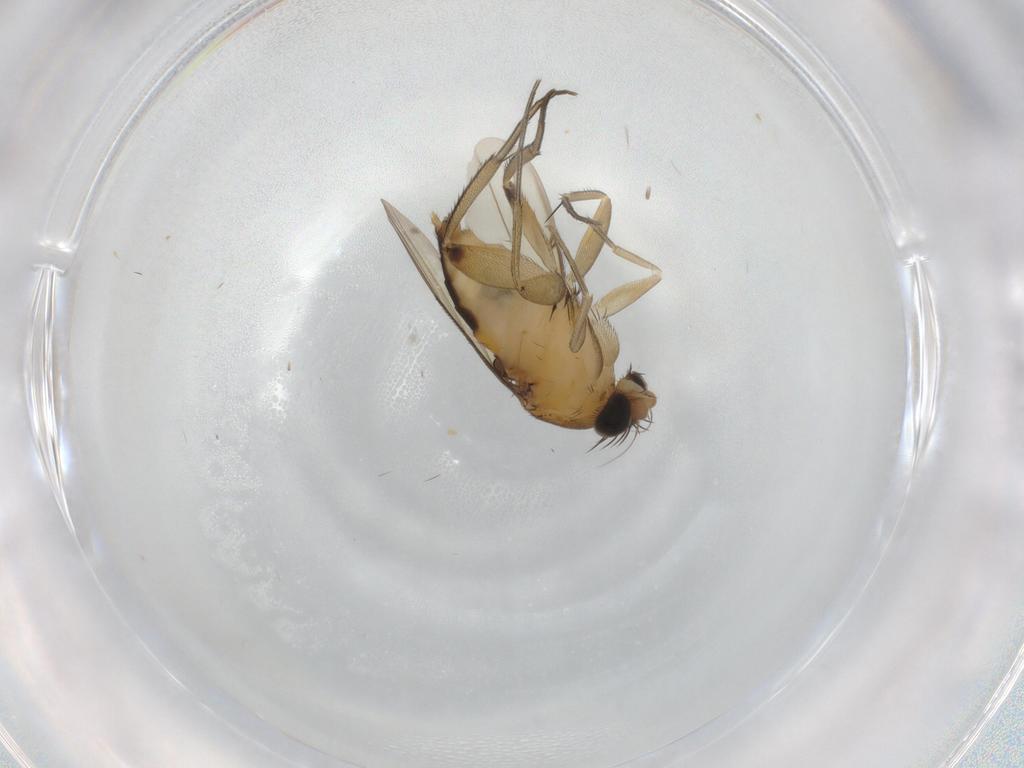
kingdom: Animalia
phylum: Arthropoda
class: Insecta
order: Diptera
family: Phoridae
